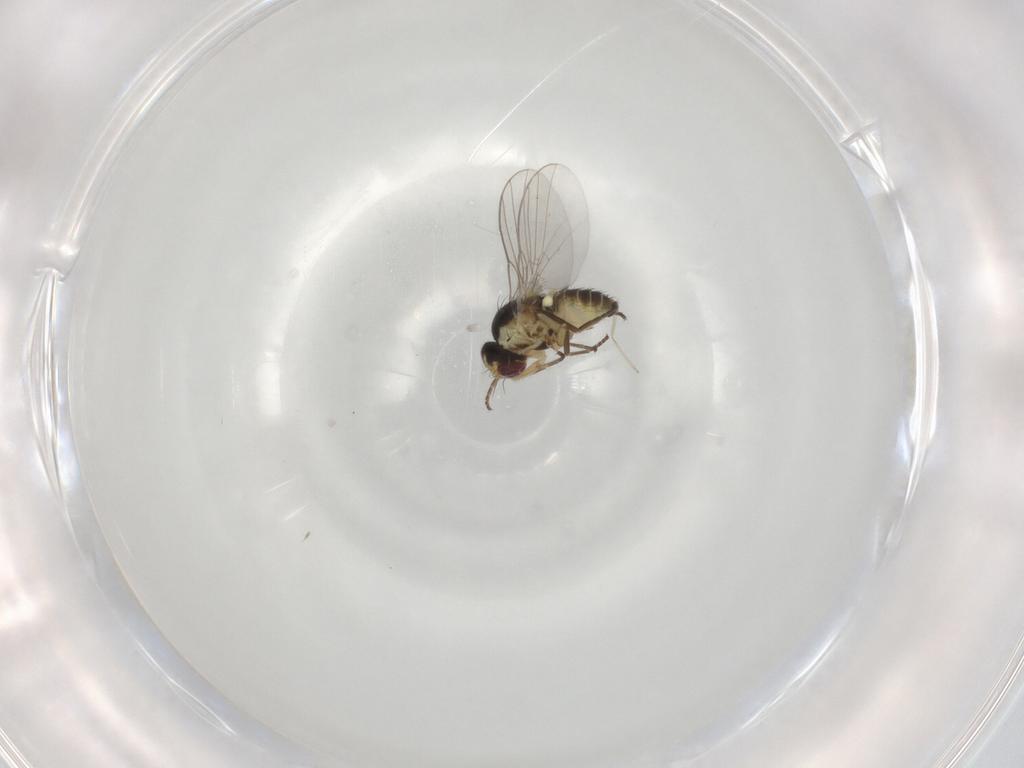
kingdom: Animalia
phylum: Arthropoda
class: Insecta
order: Diptera
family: Agromyzidae
